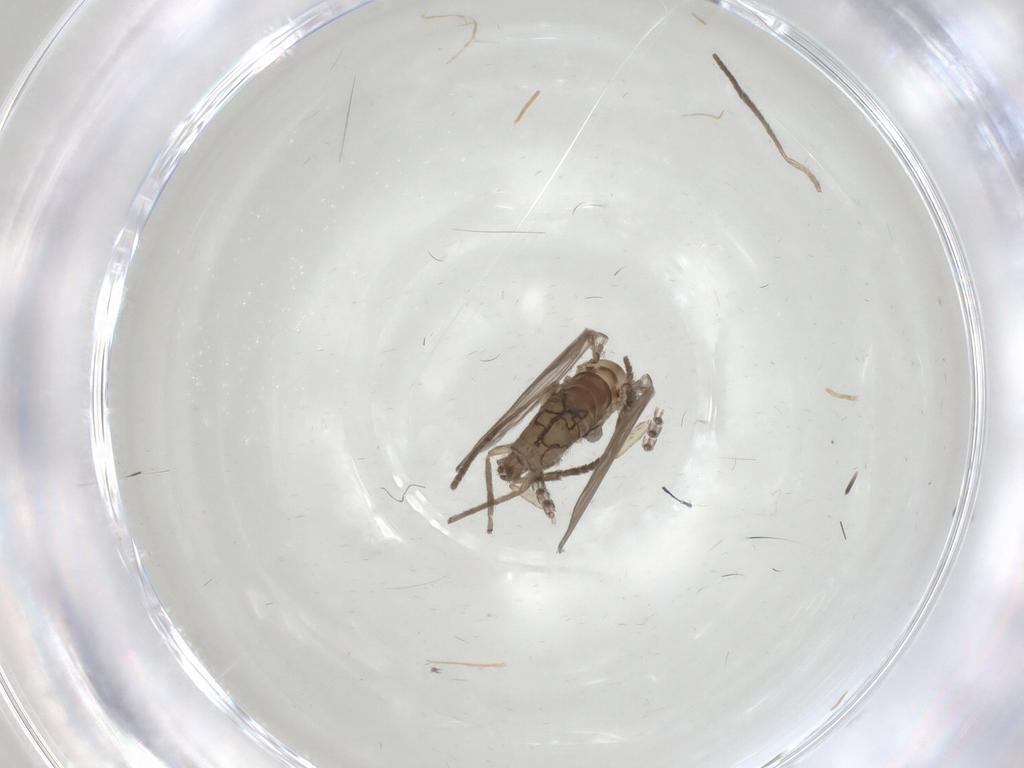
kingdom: Animalia
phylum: Arthropoda
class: Insecta
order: Diptera
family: Psychodidae
